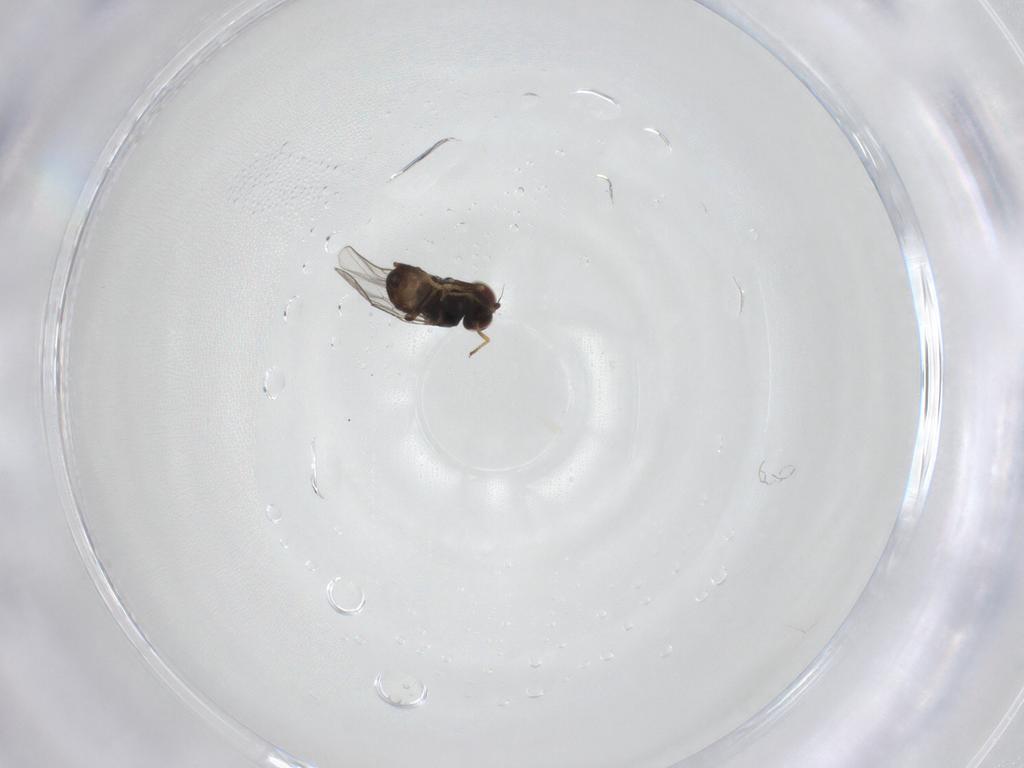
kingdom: Animalia
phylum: Arthropoda
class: Insecta
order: Diptera
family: Chloropidae
